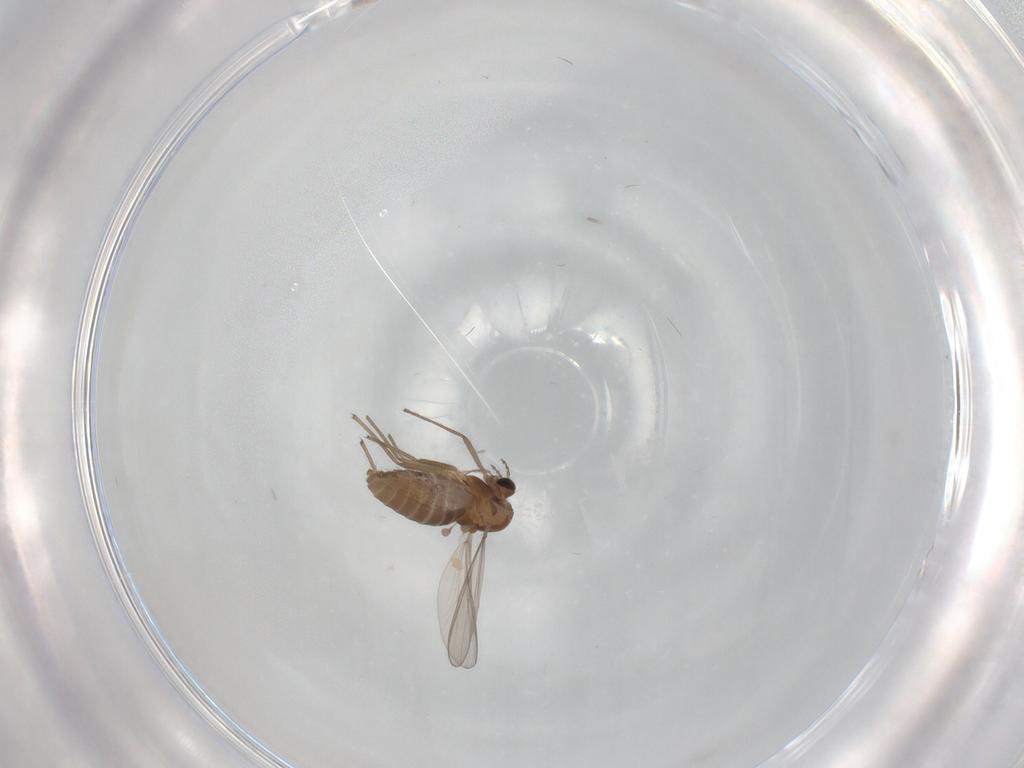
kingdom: Animalia
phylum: Arthropoda
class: Insecta
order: Diptera
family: Chironomidae
